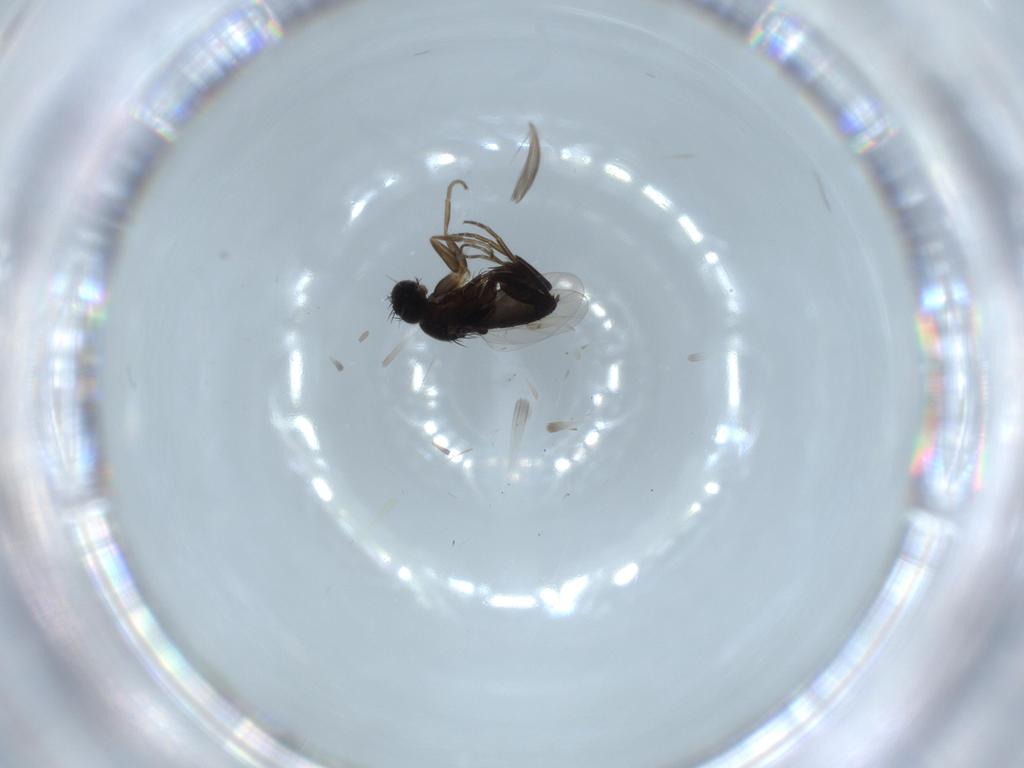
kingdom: Animalia
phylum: Arthropoda
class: Insecta
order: Diptera
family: Phoridae
